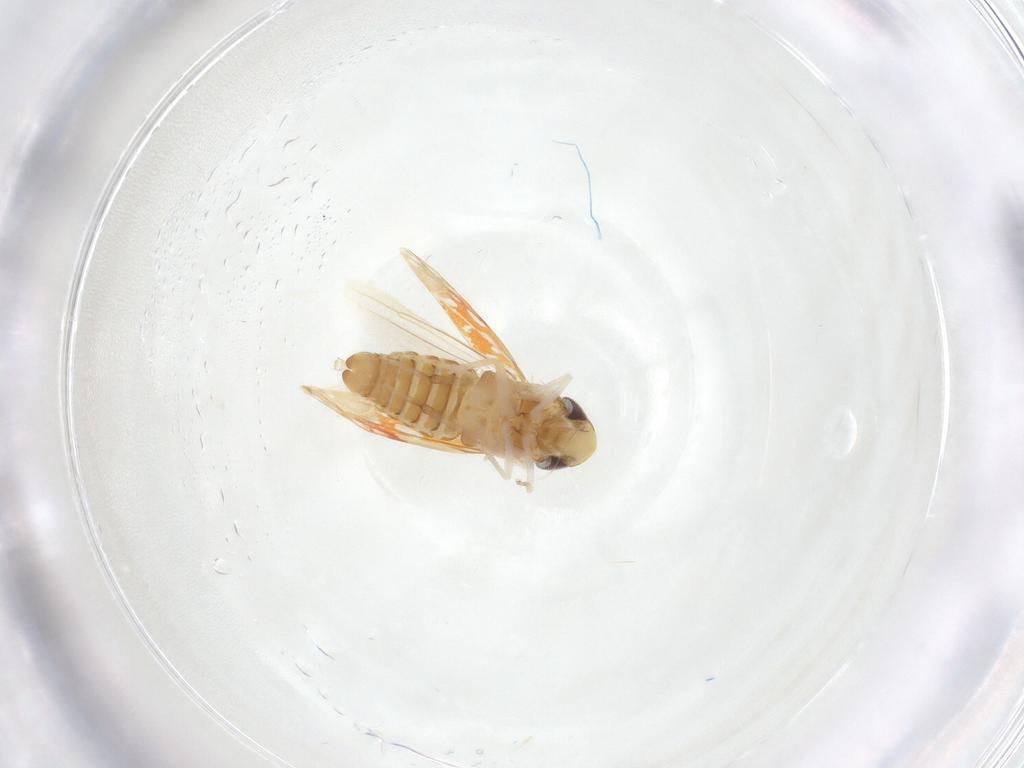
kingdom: Animalia
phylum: Arthropoda
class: Insecta
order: Hemiptera
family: Cicadellidae
